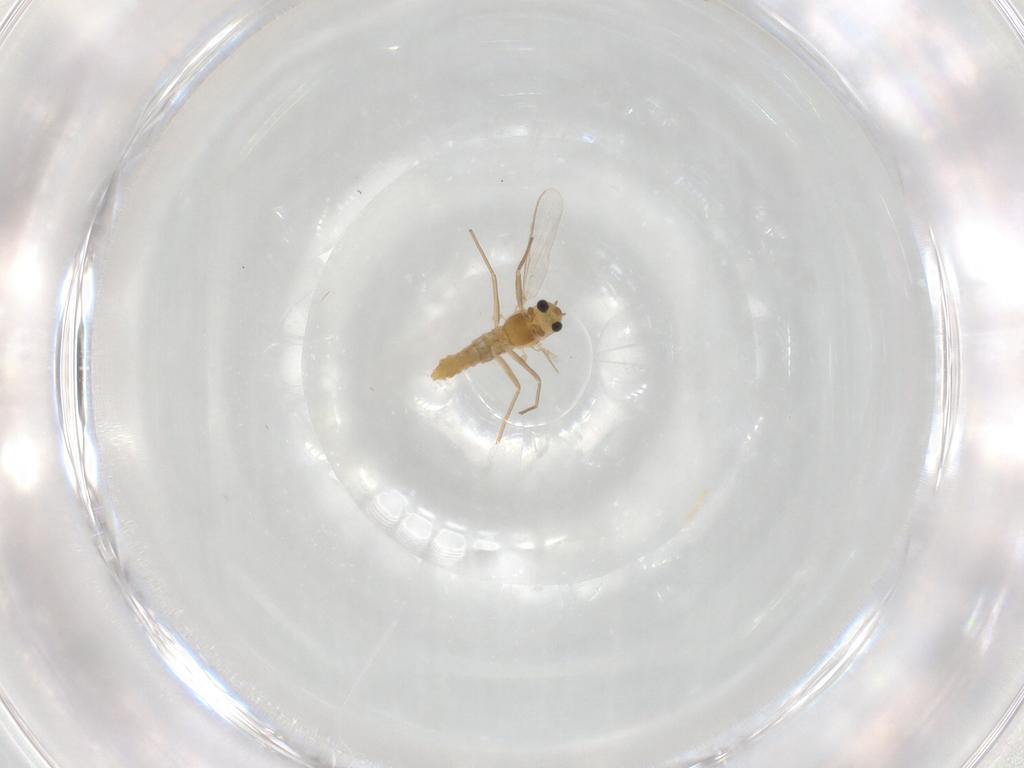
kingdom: Animalia
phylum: Arthropoda
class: Insecta
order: Diptera
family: Chironomidae
